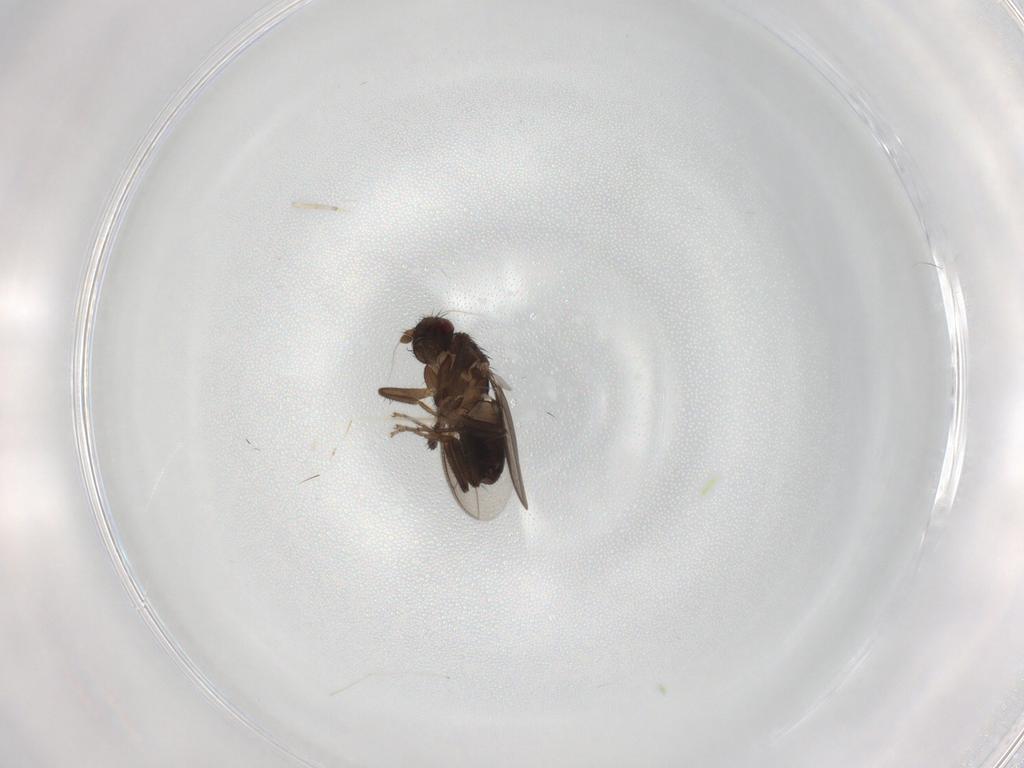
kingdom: Animalia
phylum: Arthropoda
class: Insecta
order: Diptera
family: Sphaeroceridae
